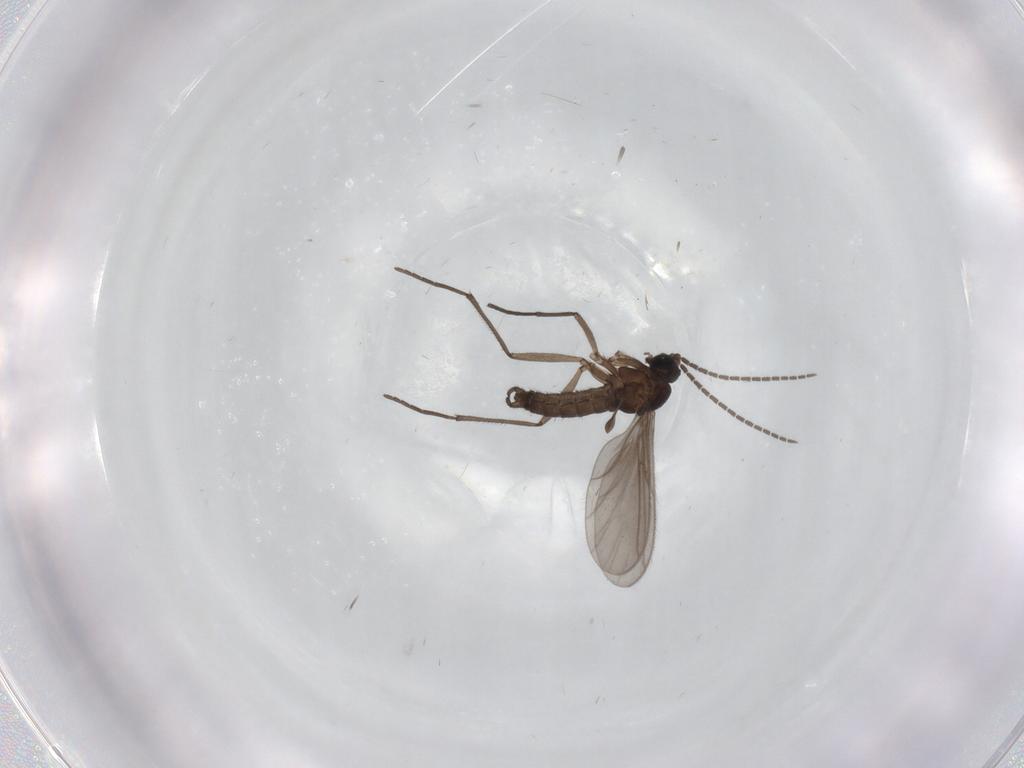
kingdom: Animalia
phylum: Arthropoda
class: Insecta
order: Diptera
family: Sciaridae
